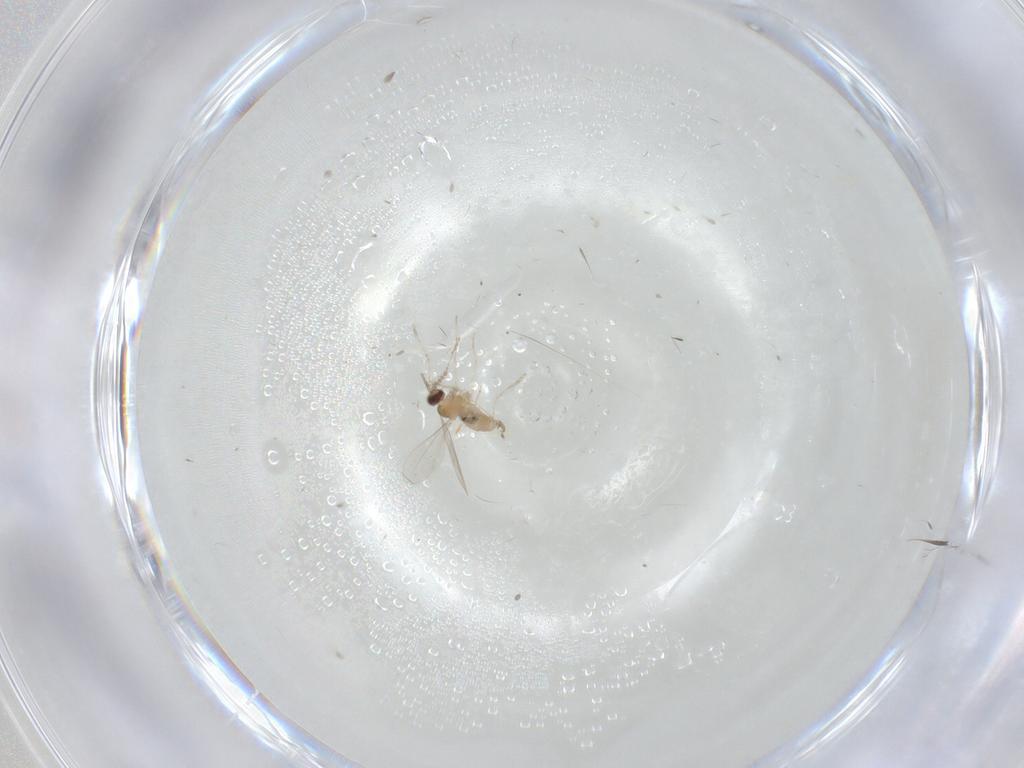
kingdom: Animalia
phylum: Arthropoda
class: Insecta
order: Diptera
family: Cecidomyiidae
